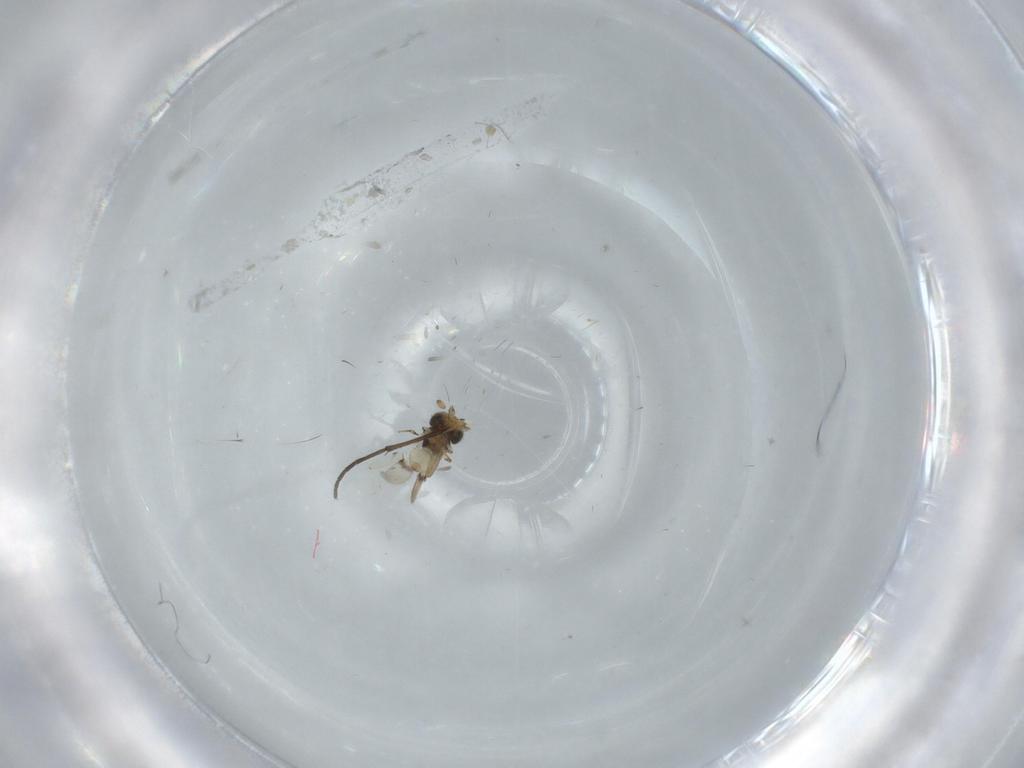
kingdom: Animalia
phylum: Arthropoda
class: Insecta
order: Hymenoptera
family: Scelionidae
